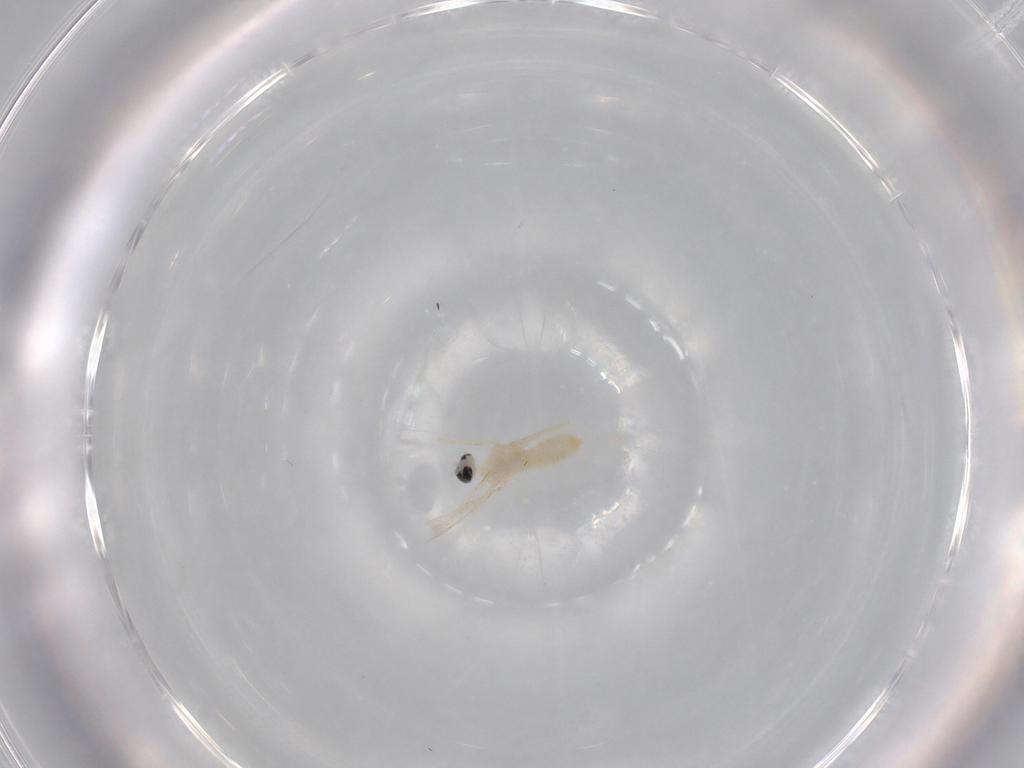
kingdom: Animalia
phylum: Arthropoda
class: Insecta
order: Diptera
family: Cecidomyiidae
